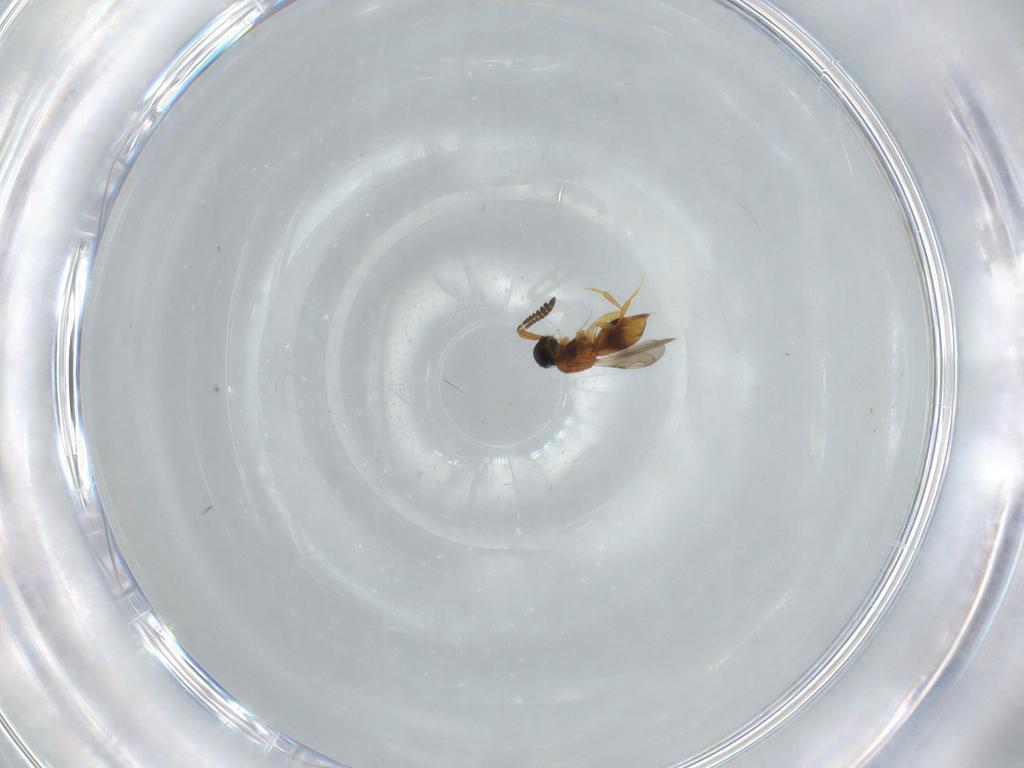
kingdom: Animalia
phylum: Arthropoda
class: Insecta
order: Hymenoptera
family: Ceraphronidae
